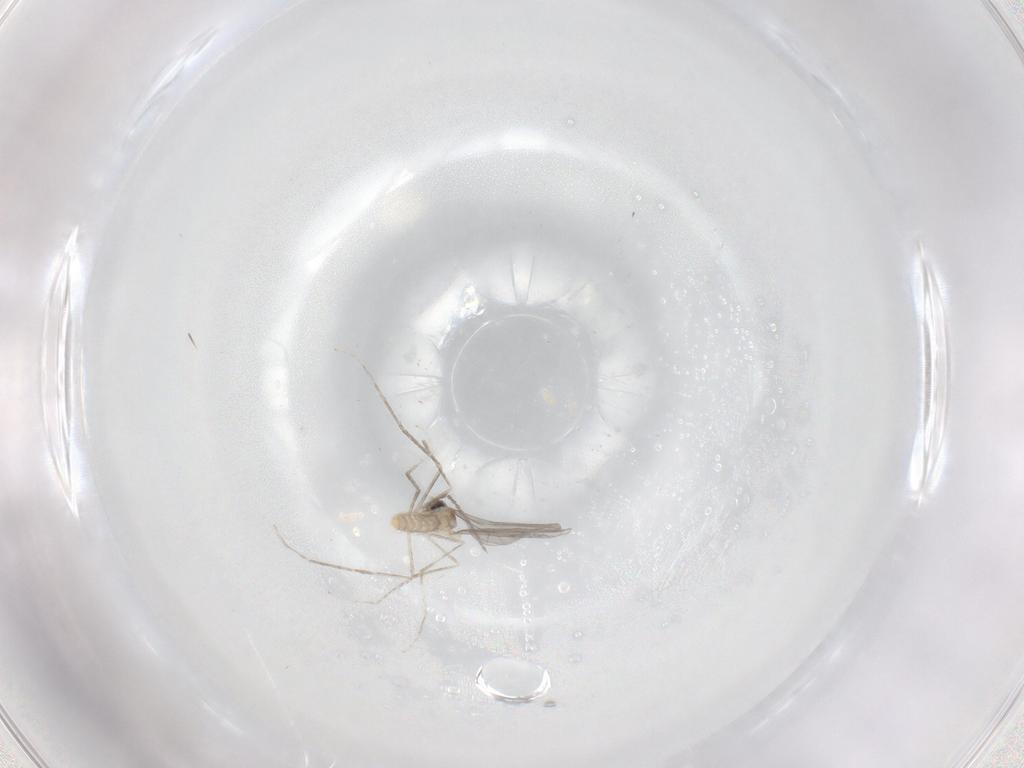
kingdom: Animalia
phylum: Arthropoda
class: Insecta
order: Diptera
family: Cecidomyiidae
